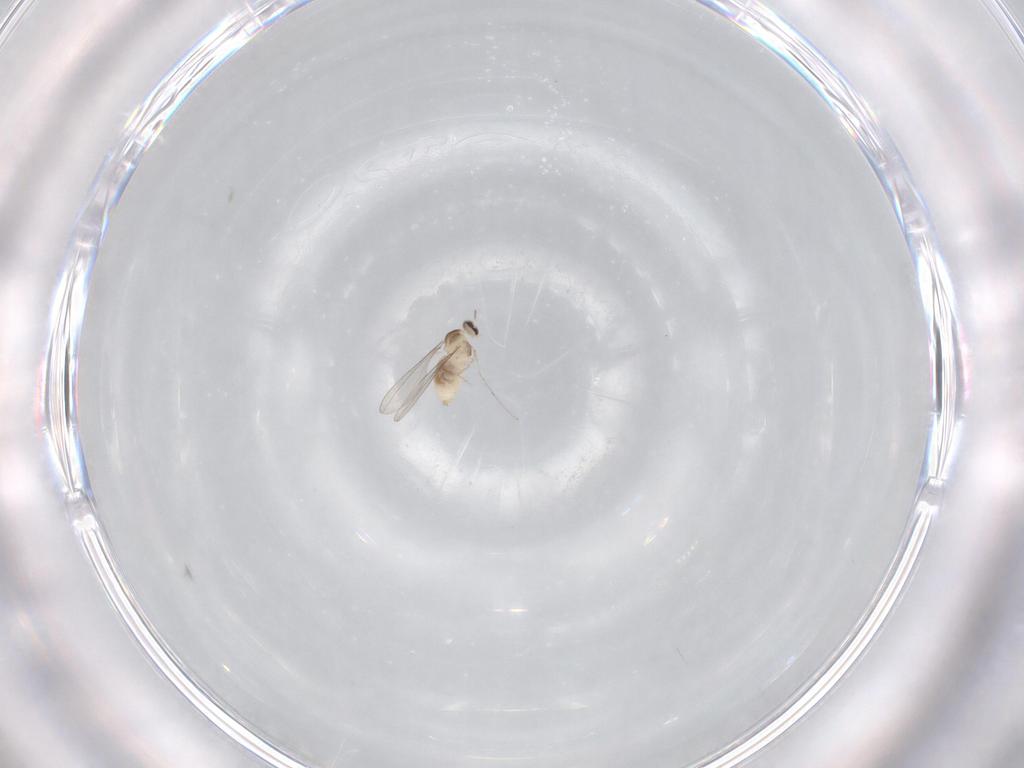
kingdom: Animalia
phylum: Arthropoda
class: Insecta
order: Diptera
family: Cecidomyiidae
